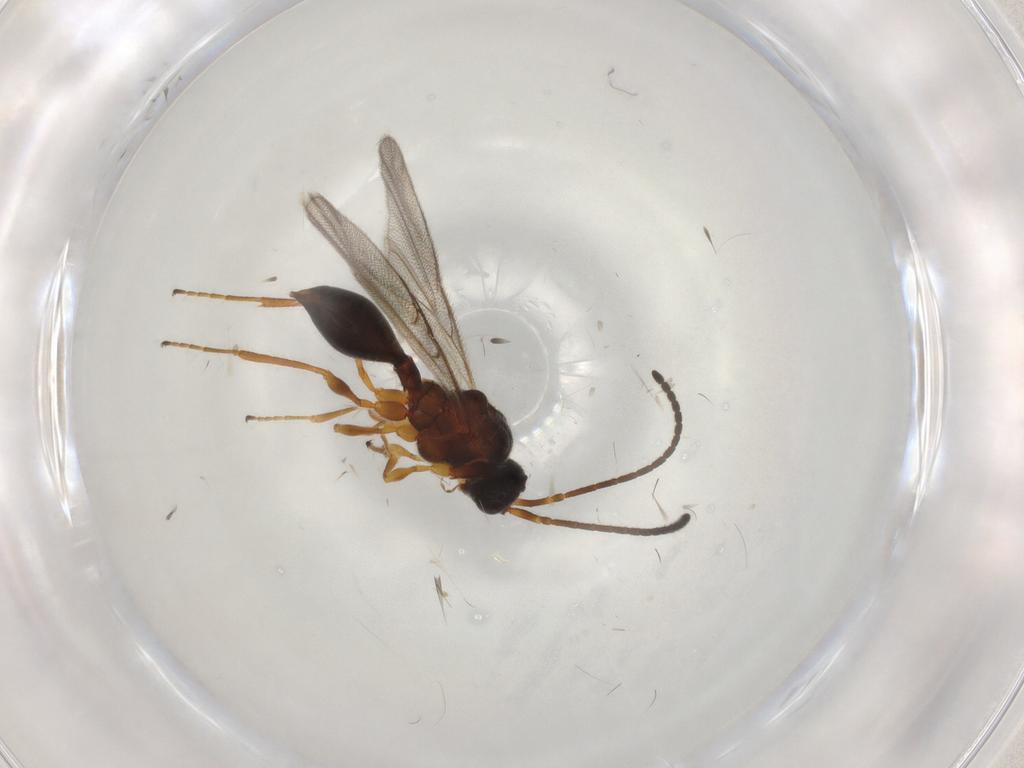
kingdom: Animalia
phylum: Arthropoda
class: Insecta
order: Hymenoptera
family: Diapriidae
